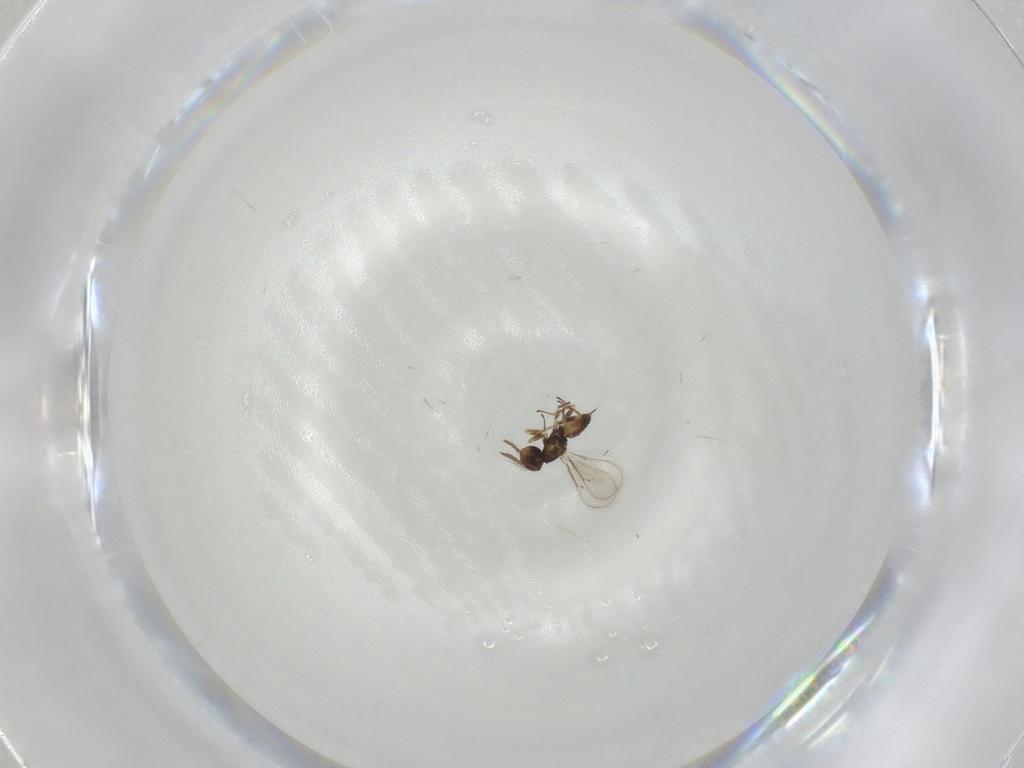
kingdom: Animalia
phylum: Arthropoda
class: Insecta
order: Hymenoptera
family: Eulophidae
